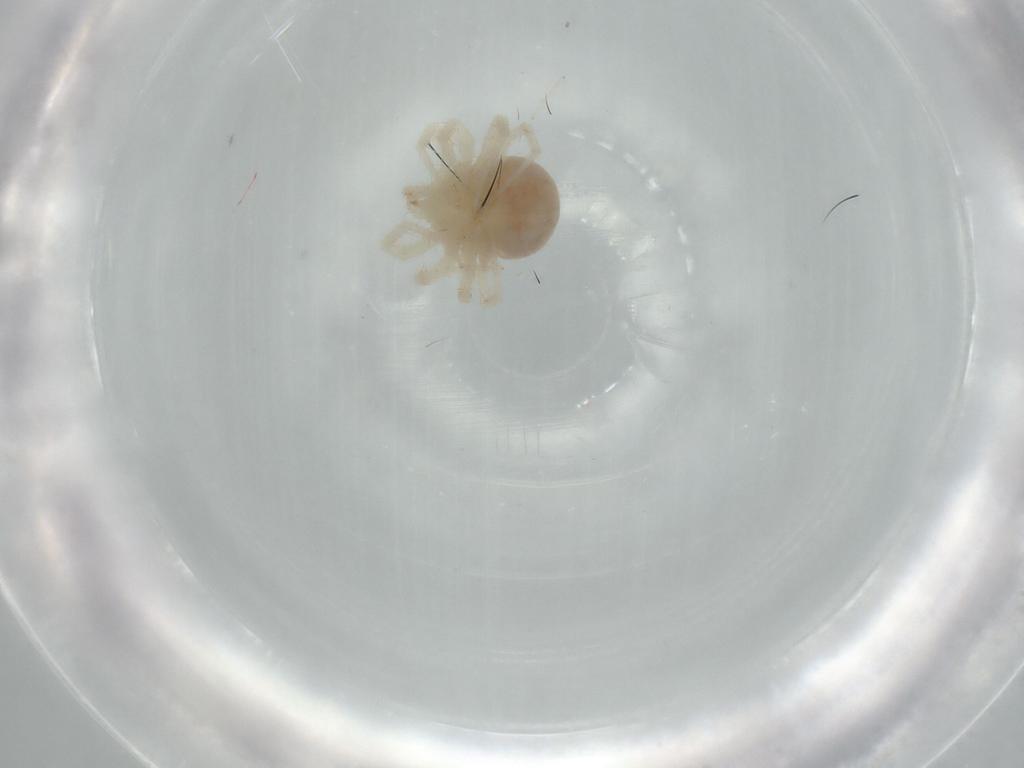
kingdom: Animalia
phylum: Arthropoda
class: Arachnida
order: Trombidiformes
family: Anystidae
